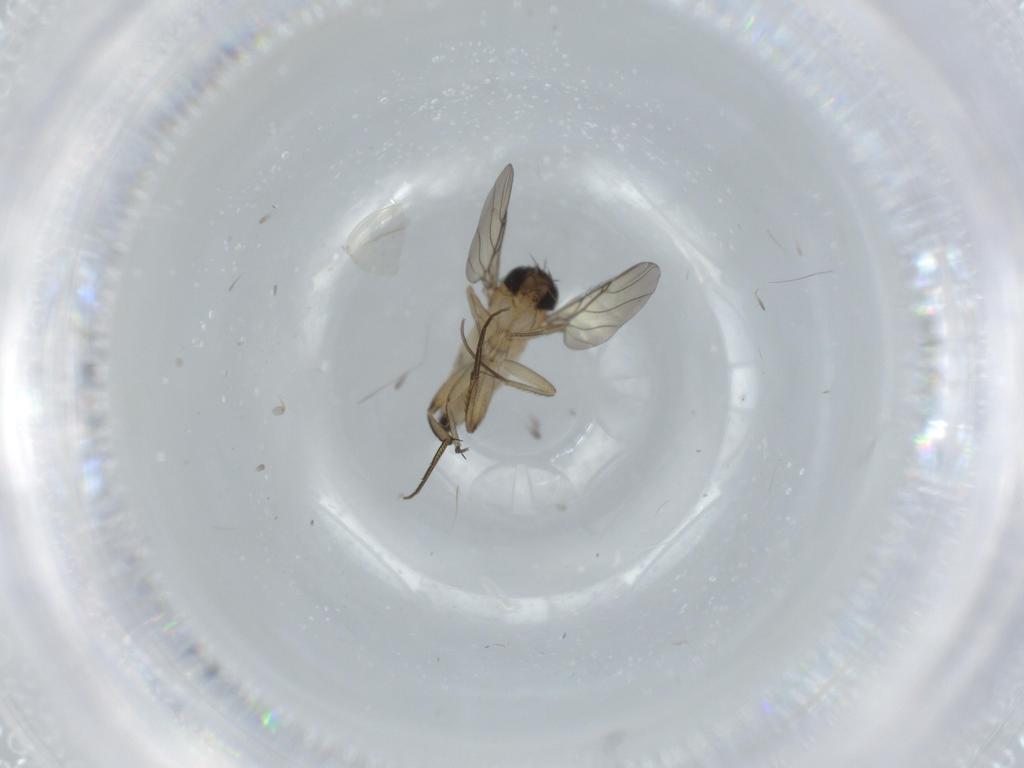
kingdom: Animalia
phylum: Arthropoda
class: Insecta
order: Diptera
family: Phoridae
